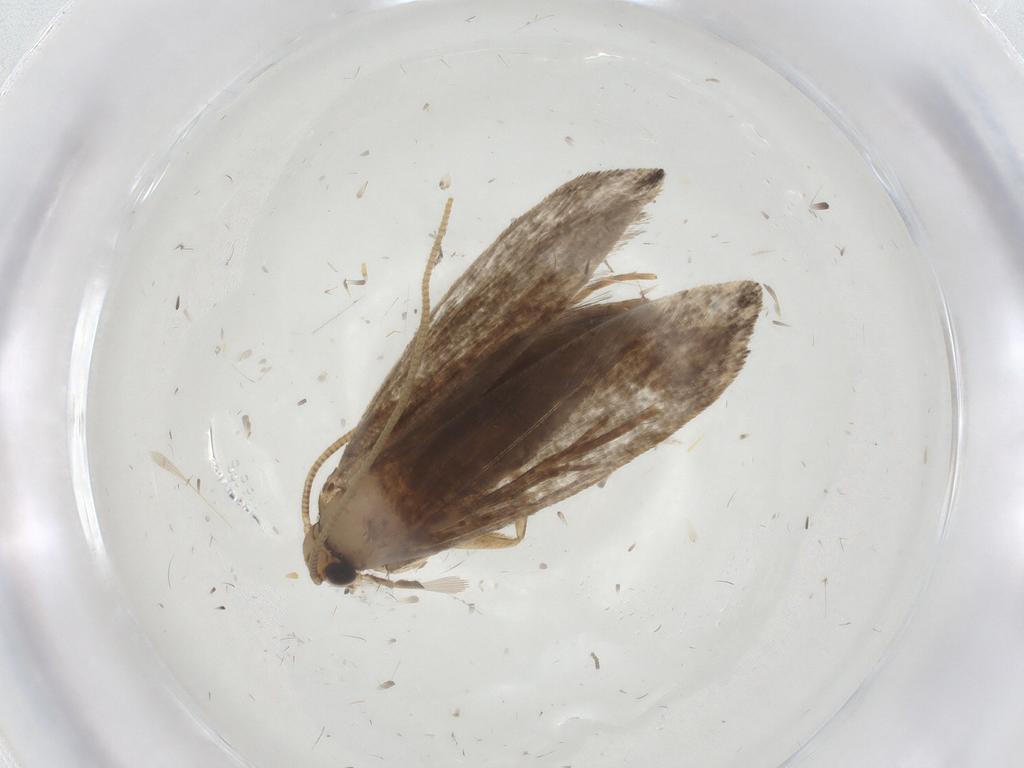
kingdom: Animalia
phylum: Arthropoda
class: Insecta
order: Lepidoptera
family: Tineidae
